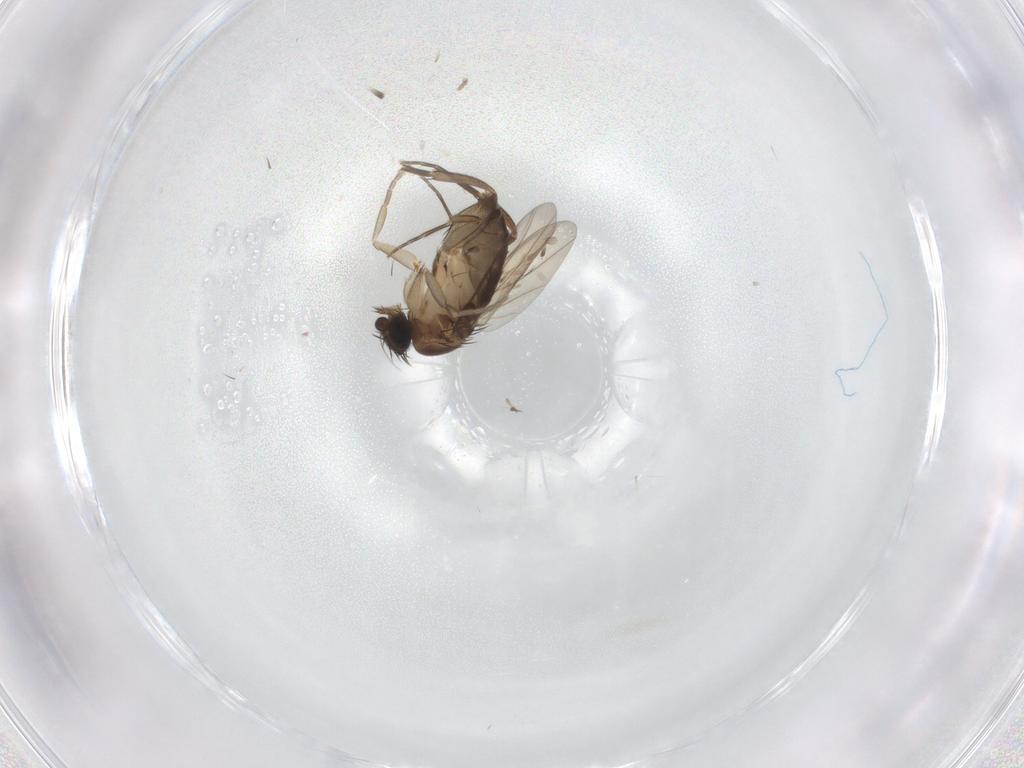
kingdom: Animalia
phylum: Arthropoda
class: Insecta
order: Diptera
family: Phoridae
